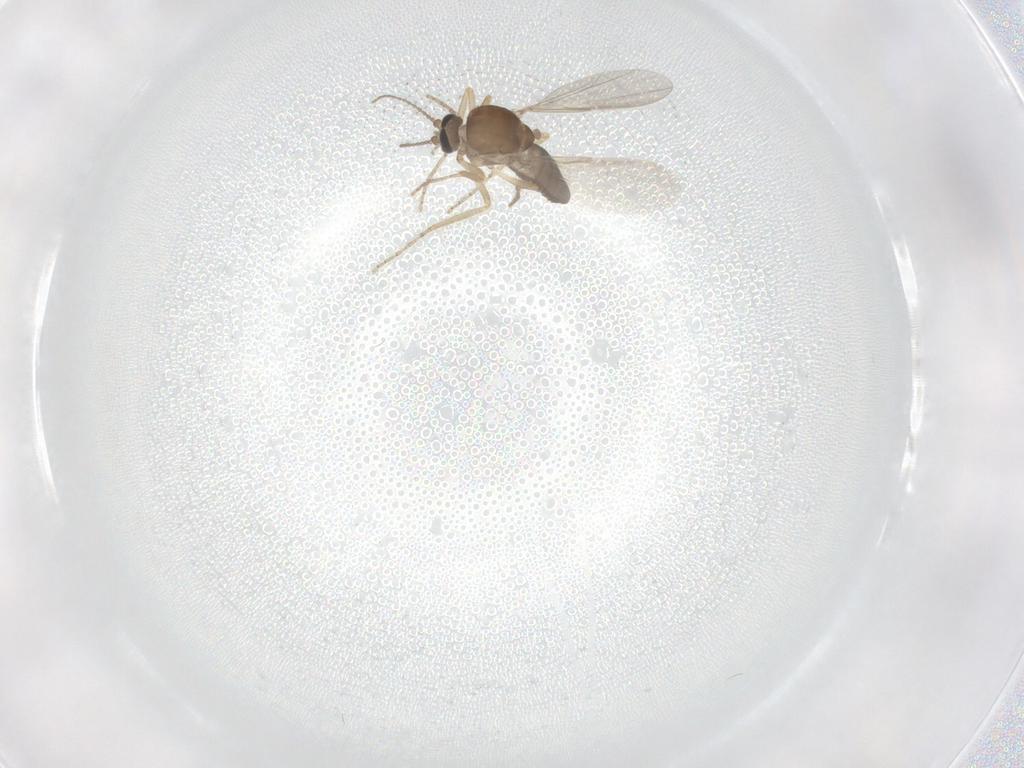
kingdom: Animalia
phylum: Arthropoda
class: Insecta
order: Diptera
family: Ceratopogonidae
